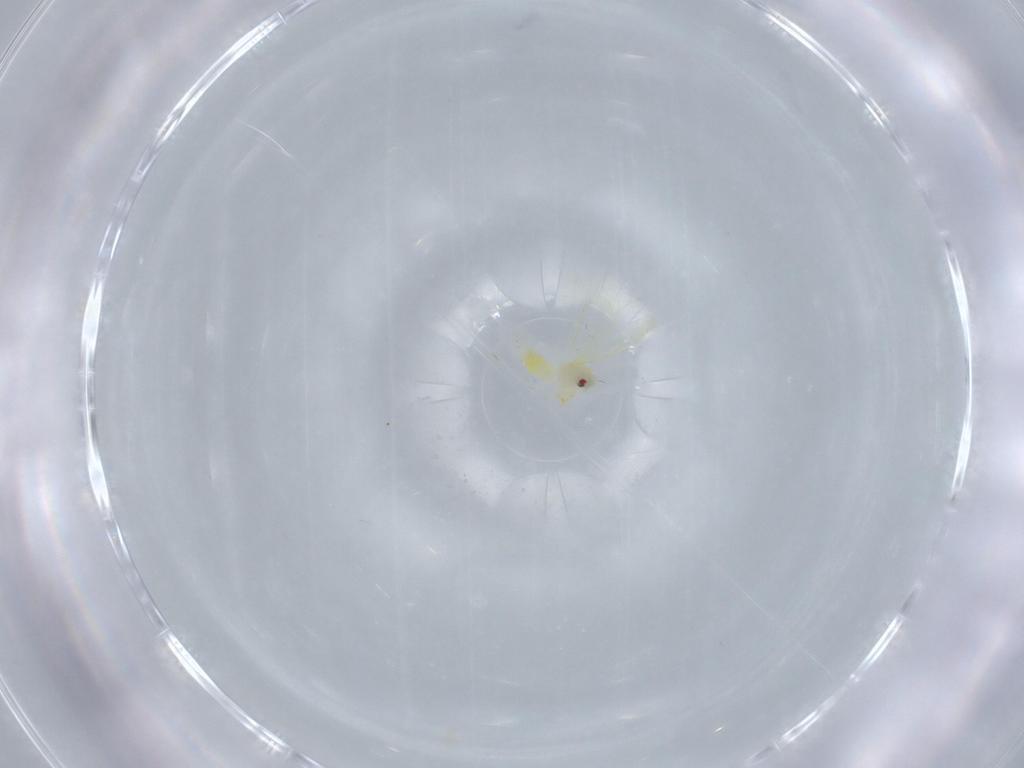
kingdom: Animalia
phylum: Arthropoda
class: Insecta
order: Hemiptera
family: Aleyrodidae
